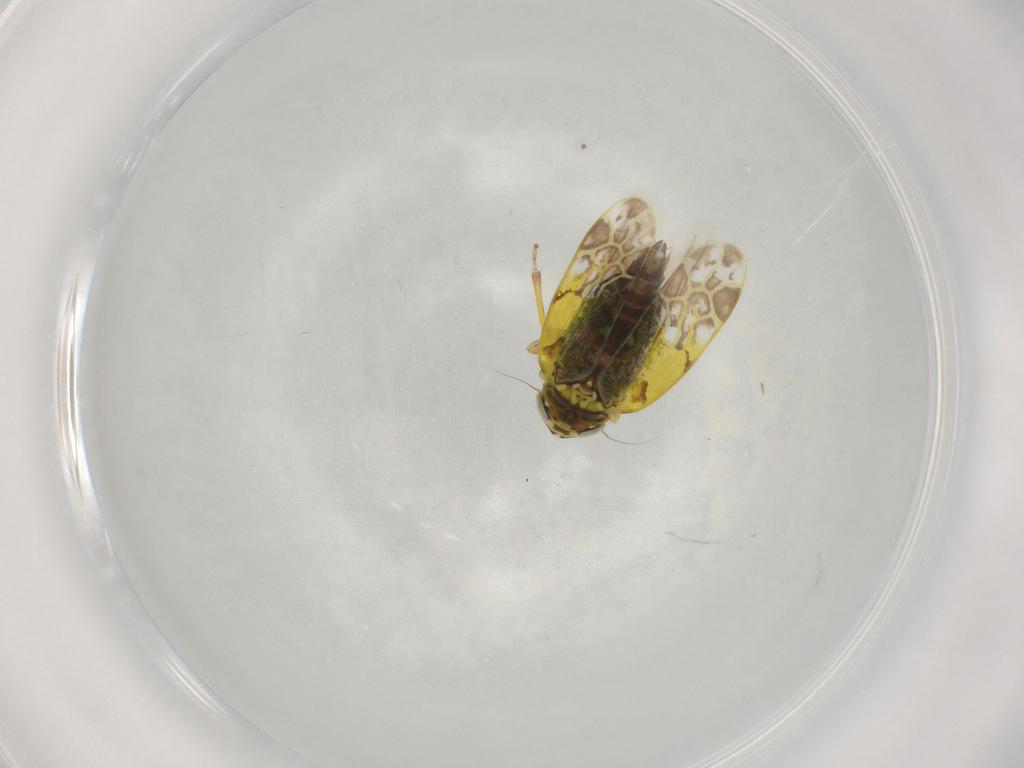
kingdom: Animalia
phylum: Arthropoda
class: Insecta
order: Hemiptera
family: Cicadellidae
